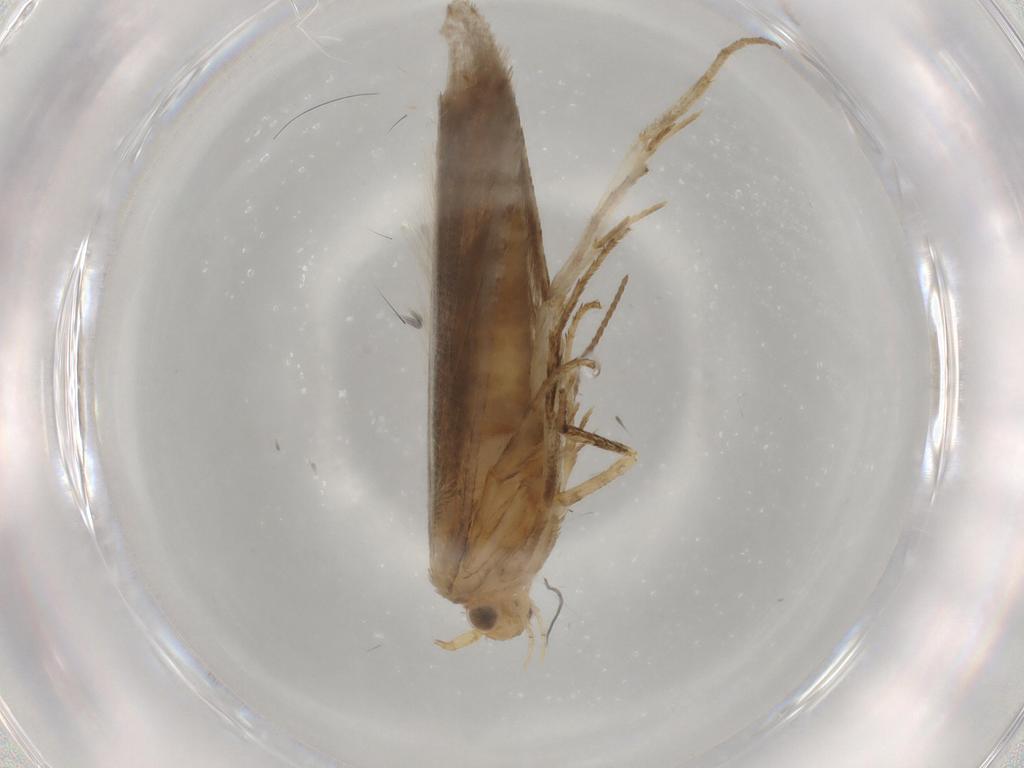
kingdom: Animalia
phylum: Arthropoda
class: Insecta
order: Lepidoptera
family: Argyresthiidae
